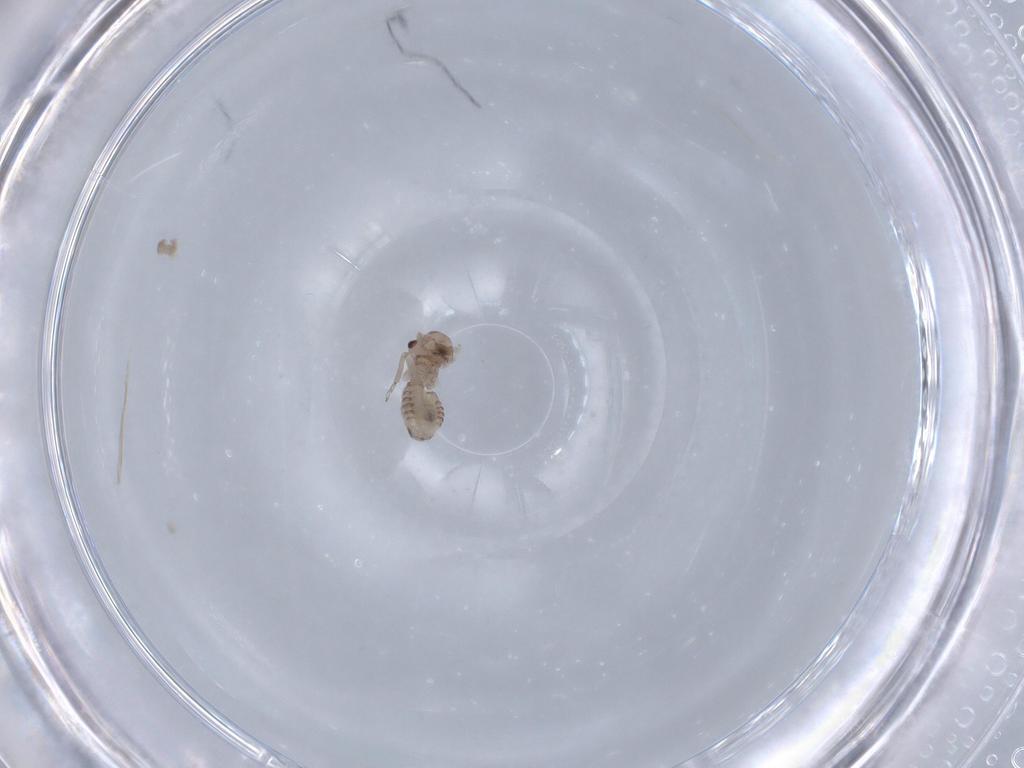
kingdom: Animalia
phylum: Arthropoda
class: Insecta
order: Psocodea
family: Peripsocidae
